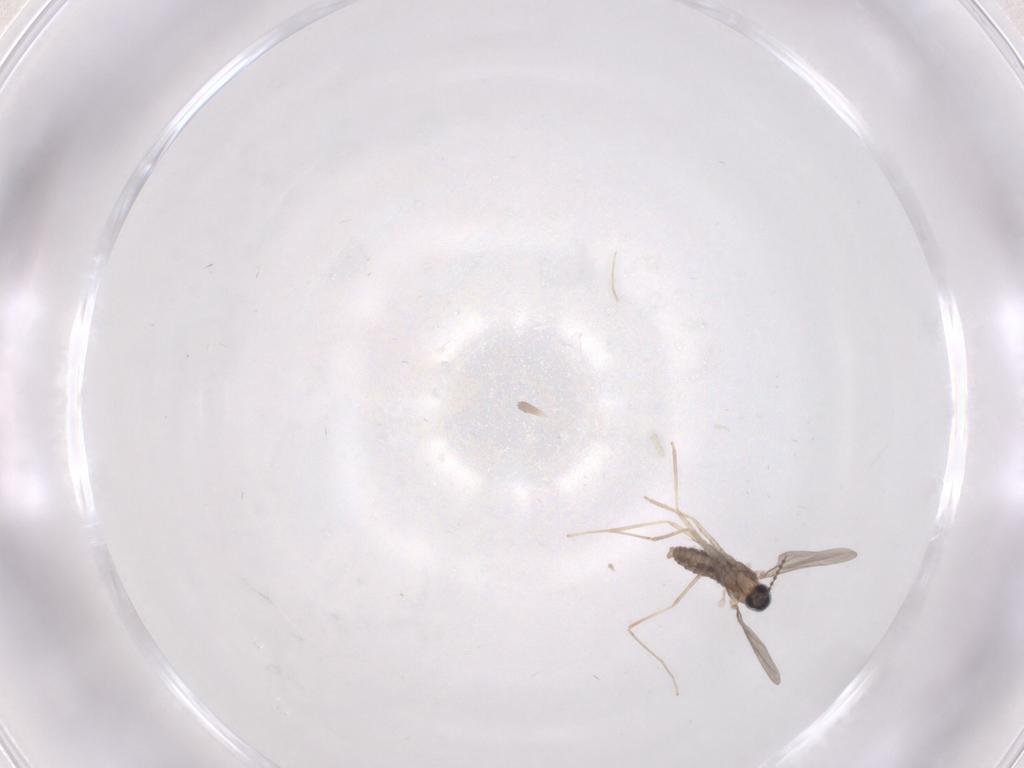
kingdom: Animalia
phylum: Arthropoda
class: Insecta
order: Diptera
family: Cecidomyiidae
